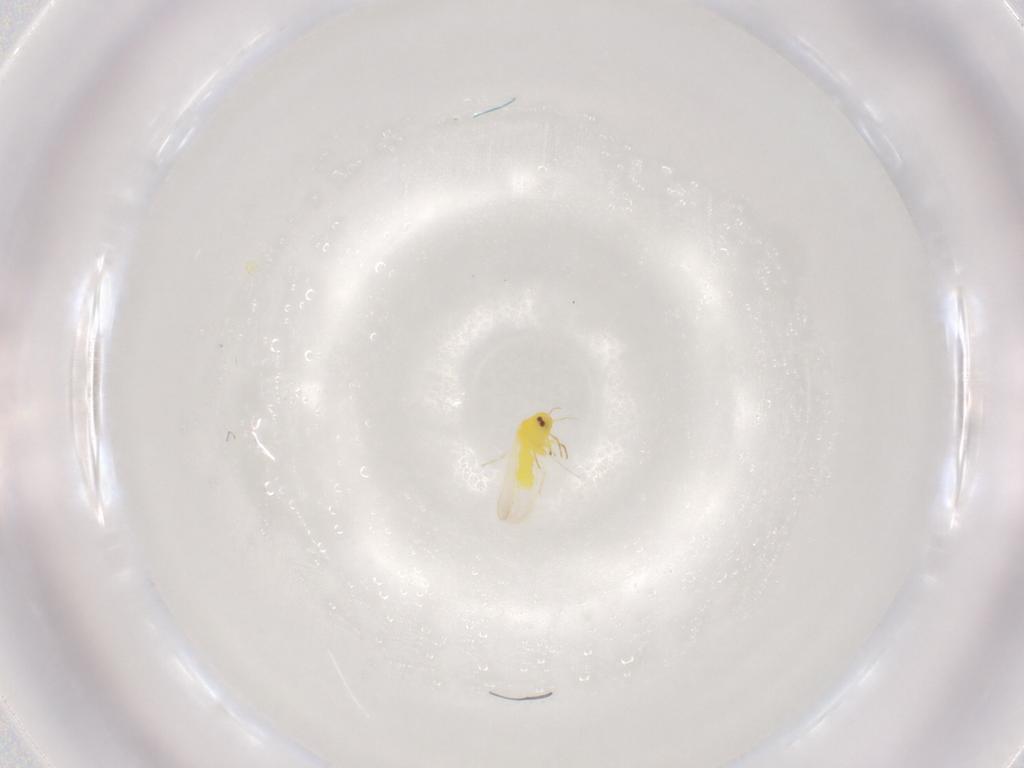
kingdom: Animalia
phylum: Arthropoda
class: Insecta
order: Hemiptera
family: Aleyrodidae
